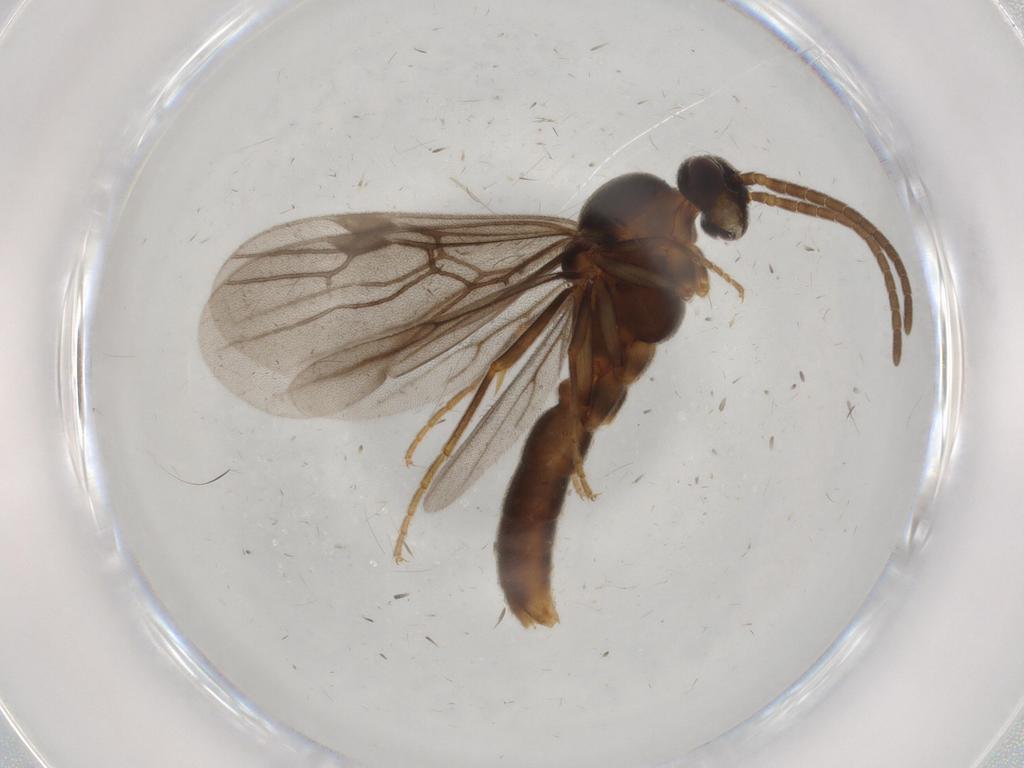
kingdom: Animalia
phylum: Arthropoda
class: Insecta
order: Hymenoptera
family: Formicidae
